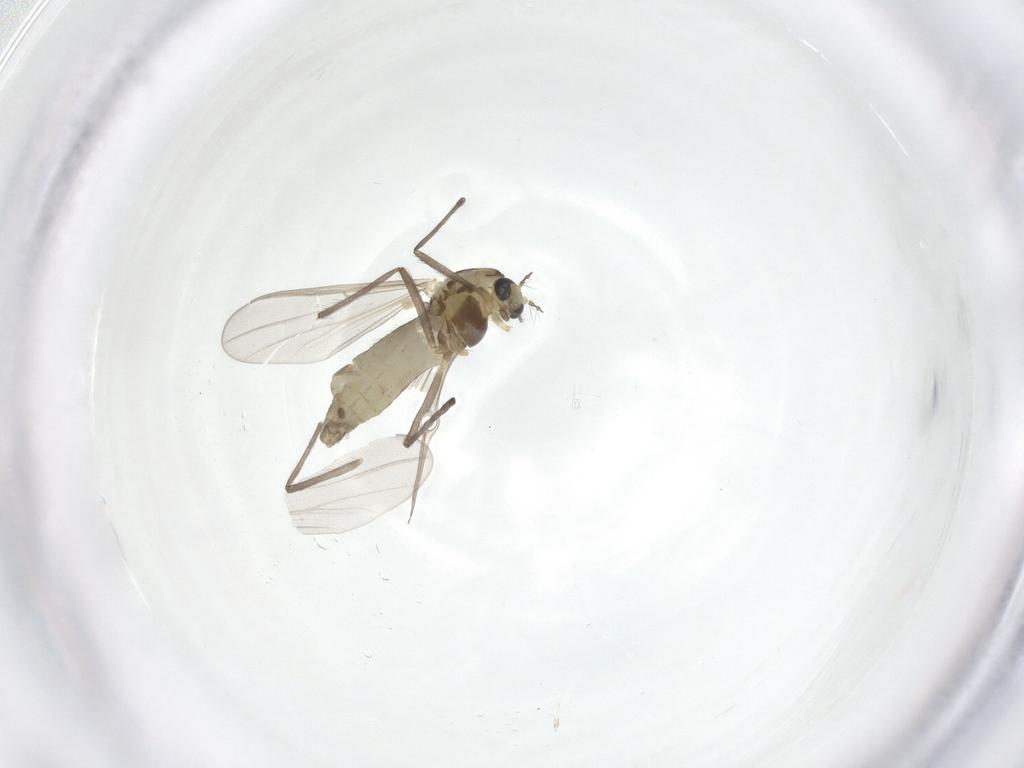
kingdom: Animalia
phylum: Arthropoda
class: Insecta
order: Diptera
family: Chironomidae
